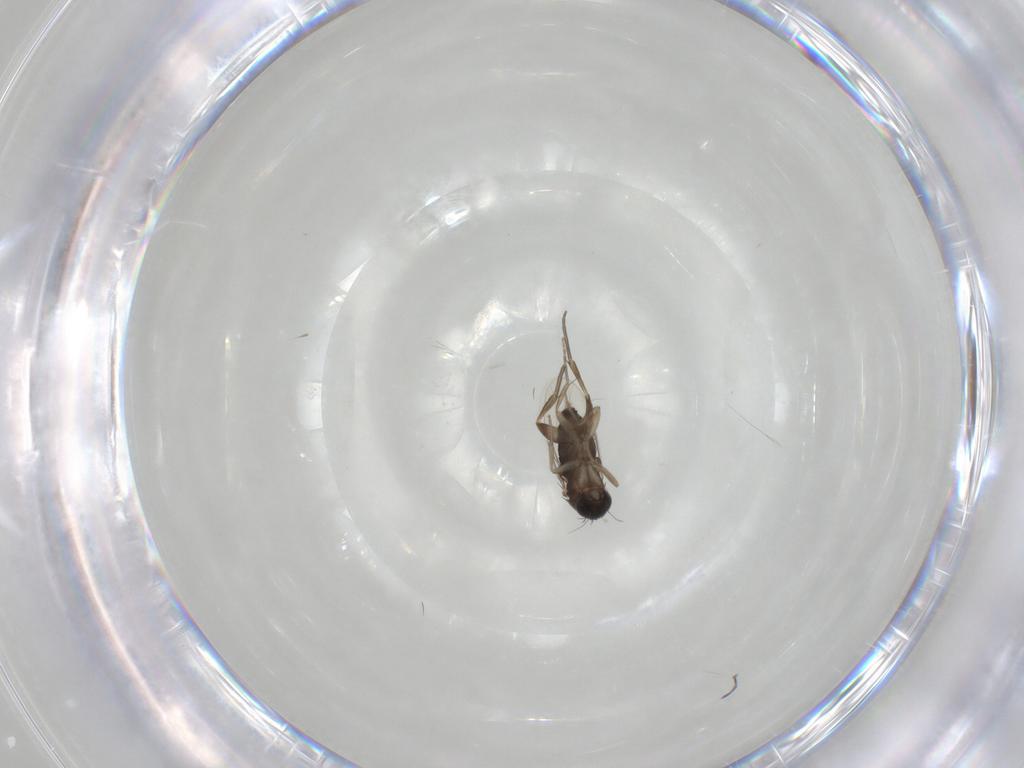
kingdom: Animalia
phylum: Arthropoda
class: Insecta
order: Diptera
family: Phoridae
